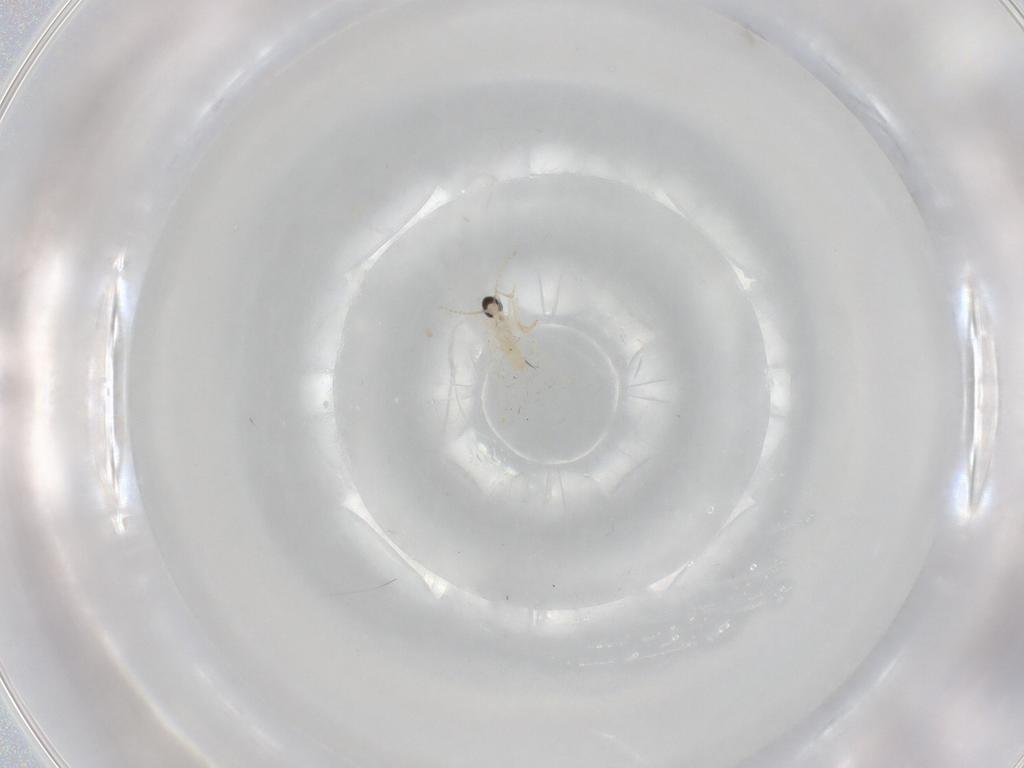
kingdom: Animalia
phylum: Arthropoda
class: Insecta
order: Diptera
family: Cecidomyiidae
